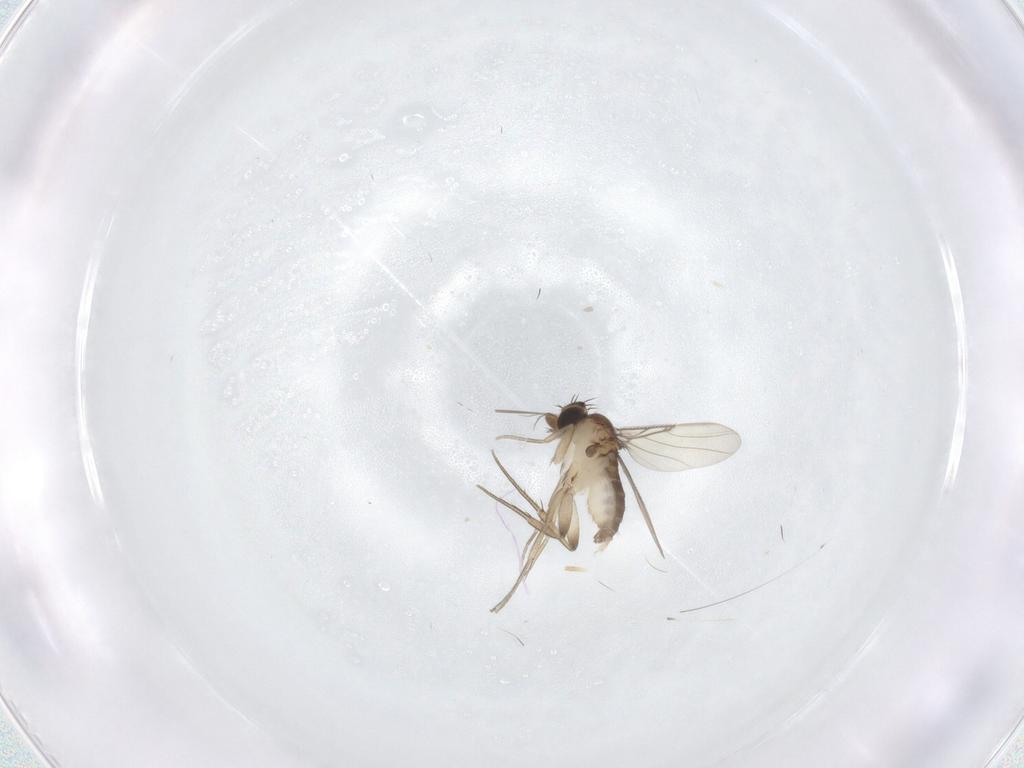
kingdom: Animalia
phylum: Arthropoda
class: Insecta
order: Diptera
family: Phoridae
